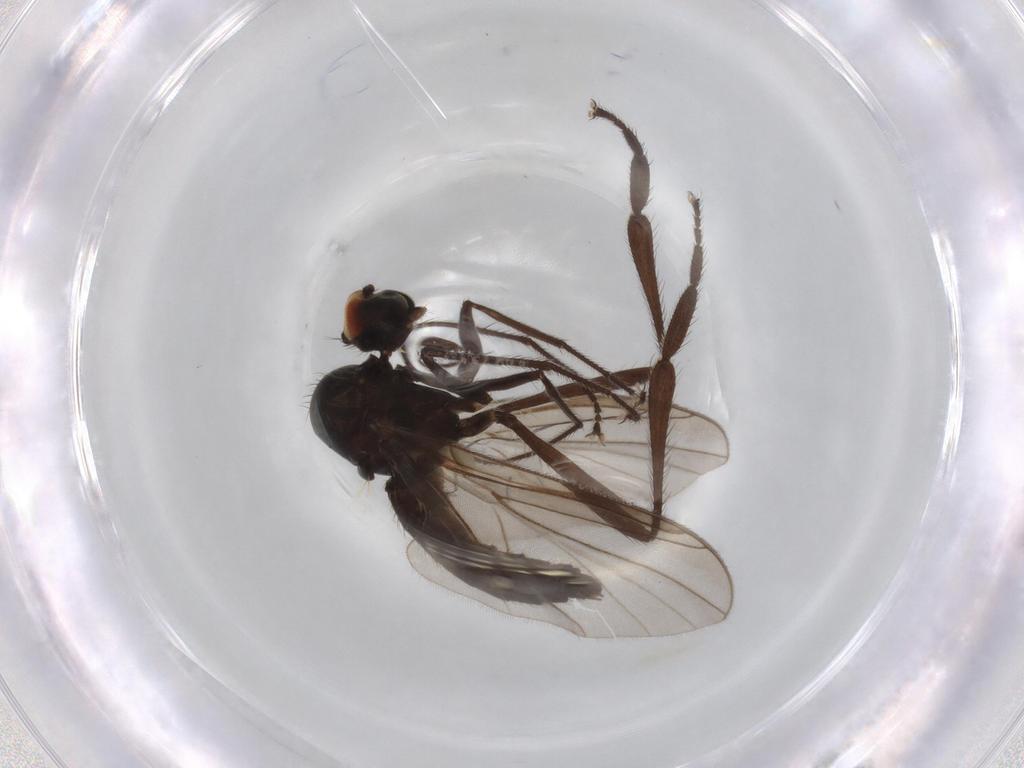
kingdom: Animalia
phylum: Arthropoda
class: Insecta
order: Diptera
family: Hybotidae
